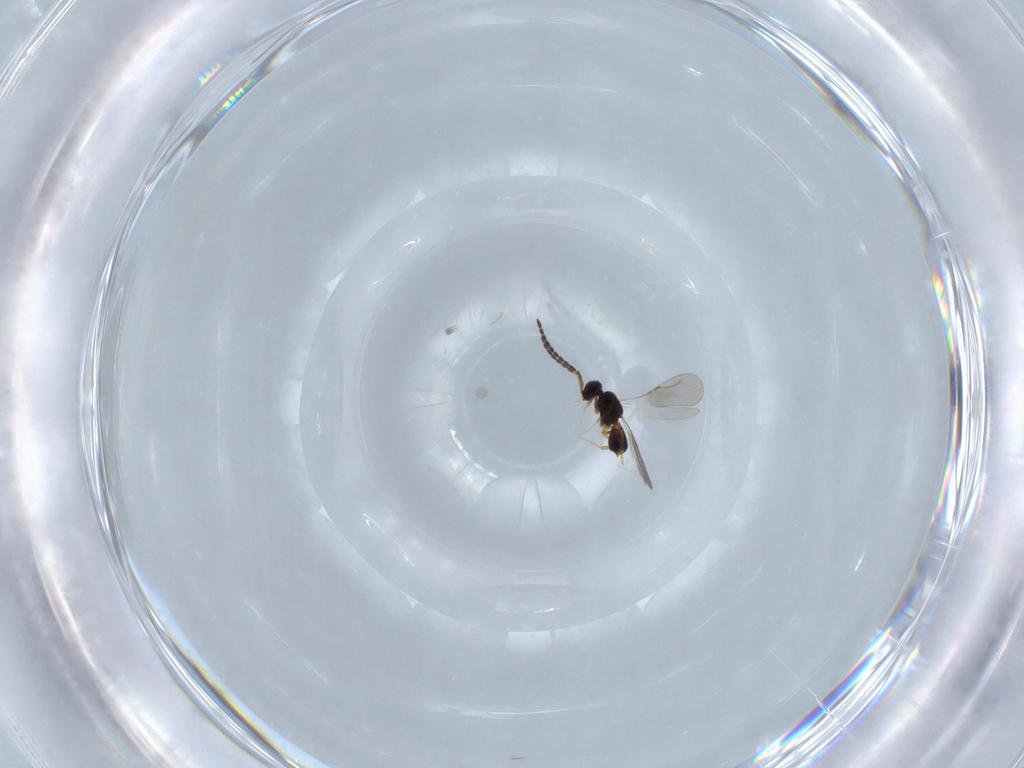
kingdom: Animalia
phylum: Arthropoda
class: Insecta
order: Hymenoptera
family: Ceraphronidae
